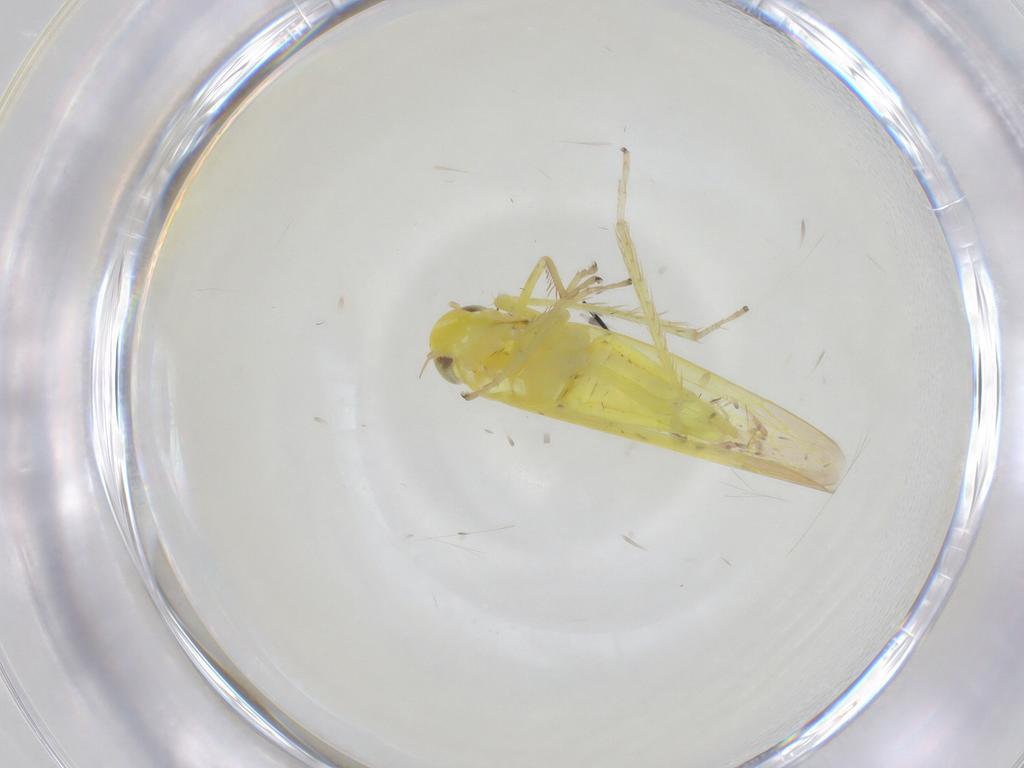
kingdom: Animalia
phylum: Arthropoda
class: Insecta
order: Hemiptera
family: Cicadellidae
